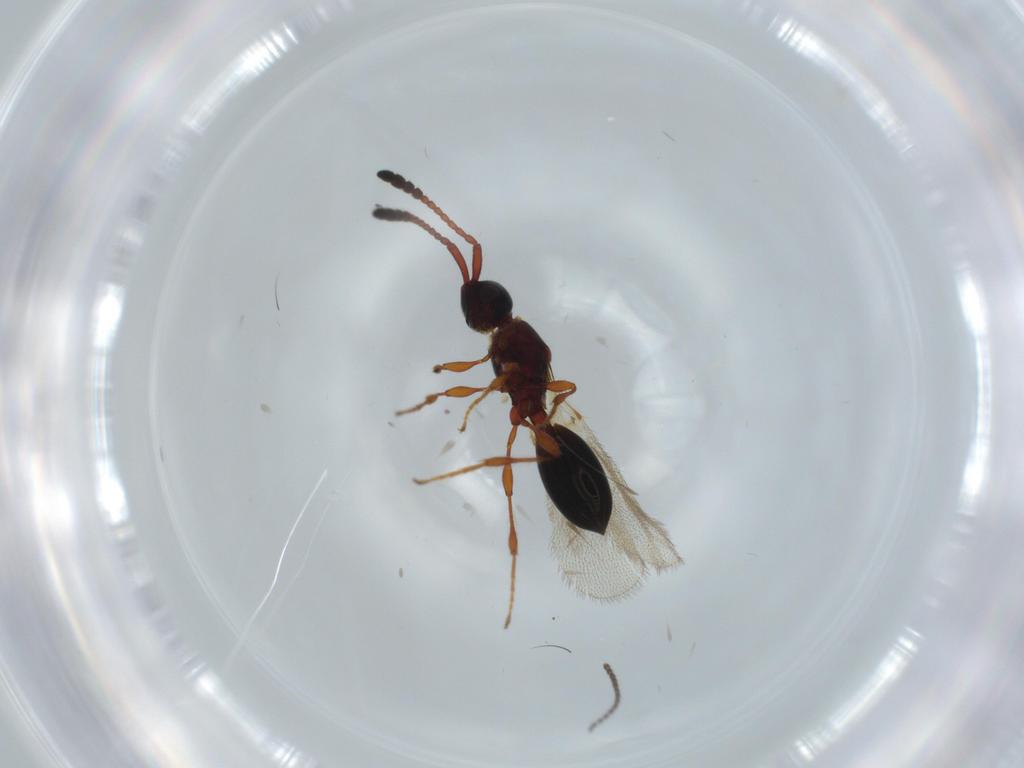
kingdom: Animalia
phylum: Arthropoda
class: Insecta
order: Hymenoptera
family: Diapriidae
